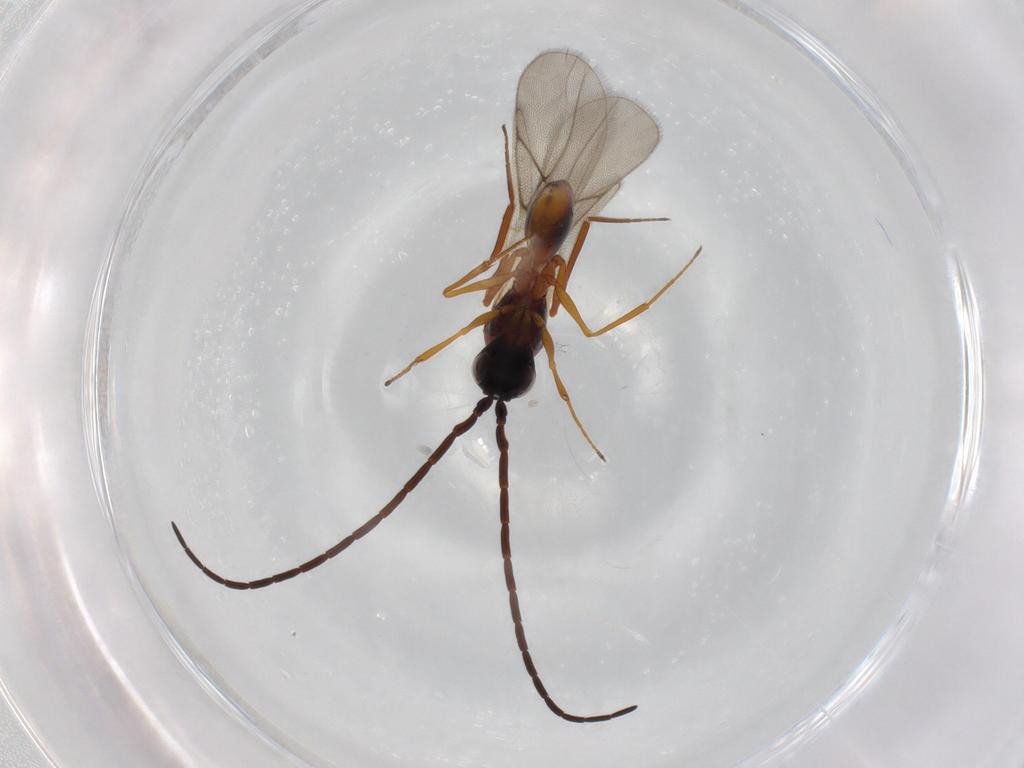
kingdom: Animalia
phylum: Arthropoda
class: Insecta
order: Hymenoptera
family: Figitidae
